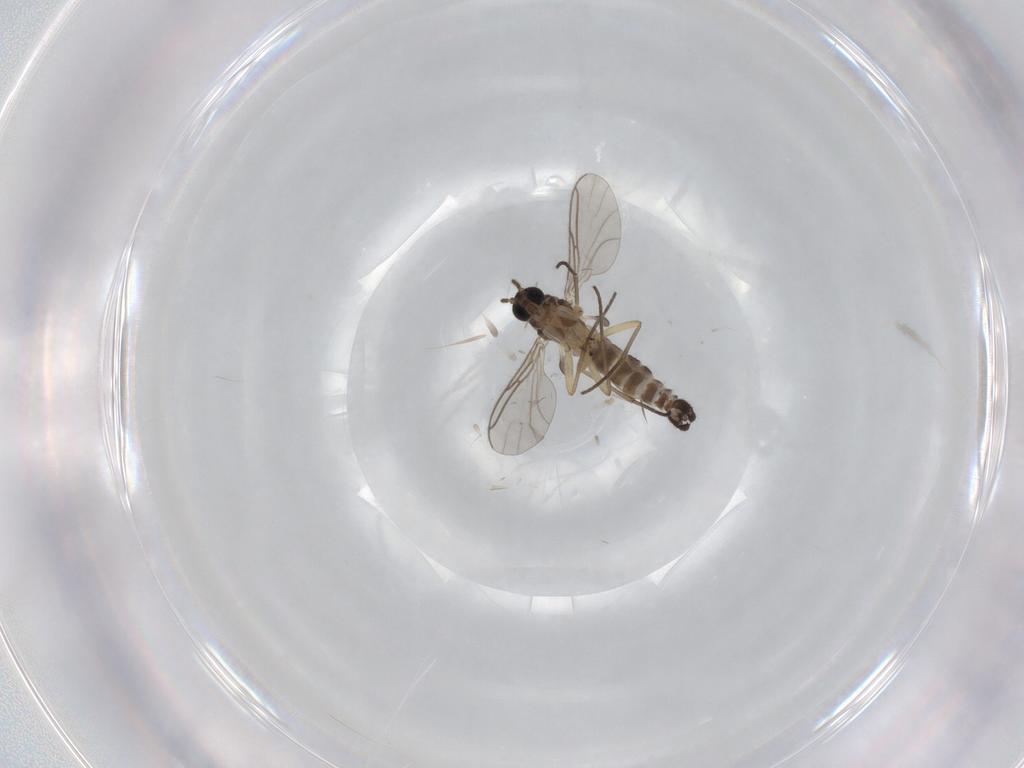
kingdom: Animalia
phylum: Arthropoda
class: Insecta
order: Diptera
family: Limoniidae
